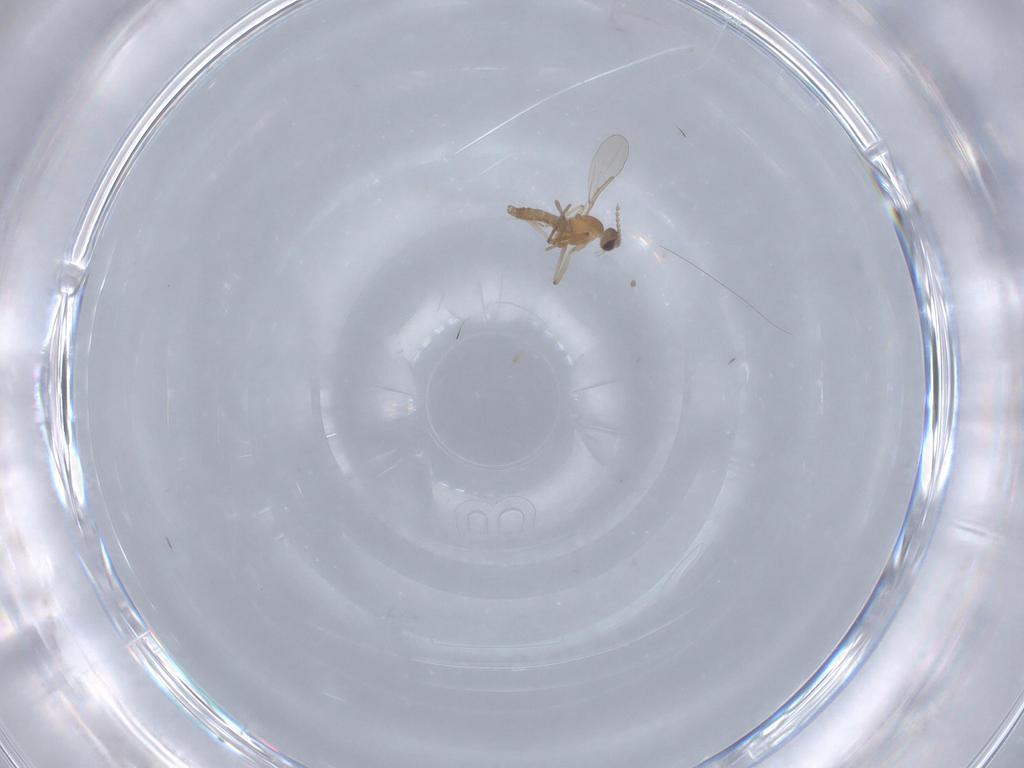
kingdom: Animalia
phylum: Arthropoda
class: Insecta
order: Diptera
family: Cecidomyiidae
